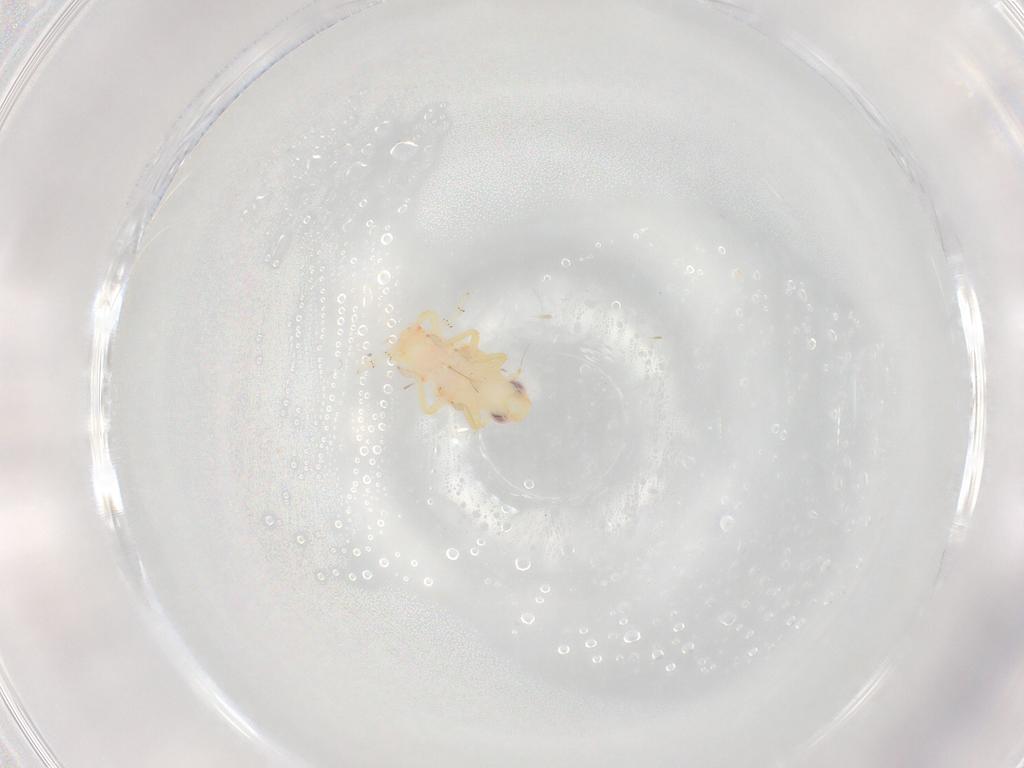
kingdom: Animalia
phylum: Arthropoda
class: Insecta
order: Hemiptera
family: Tropiduchidae
